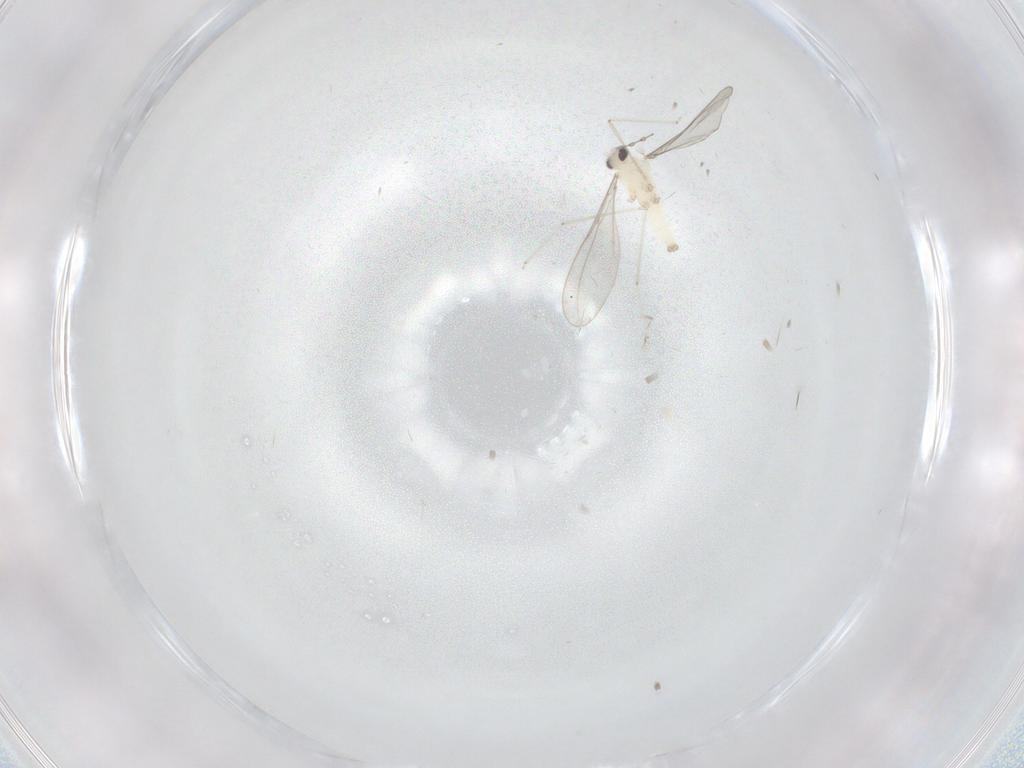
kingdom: Animalia
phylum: Arthropoda
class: Insecta
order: Diptera
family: Cecidomyiidae
